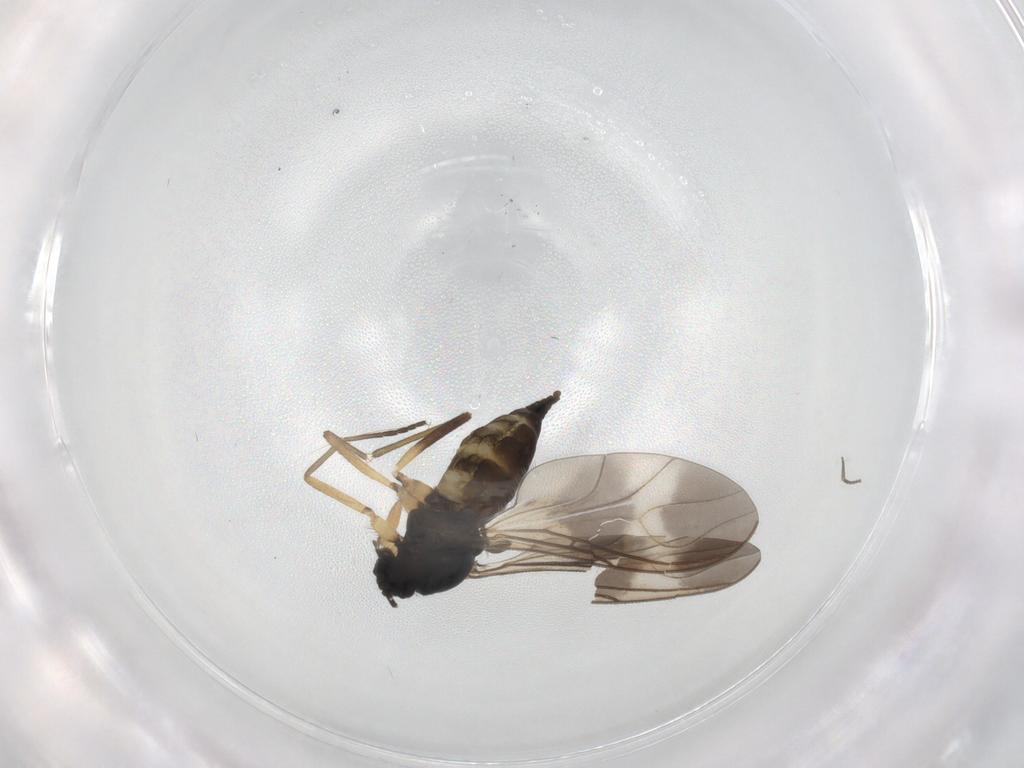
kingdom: Animalia
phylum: Arthropoda
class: Insecta
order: Diptera
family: Sciaridae
